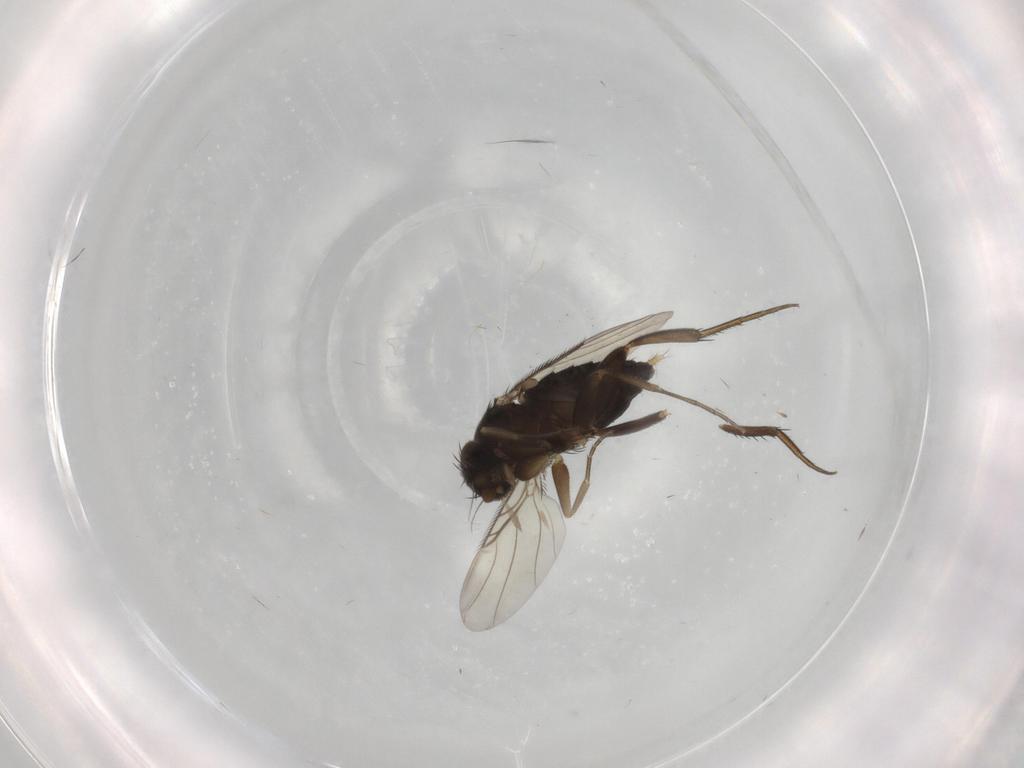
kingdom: Animalia
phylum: Arthropoda
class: Insecta
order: Diptera
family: Phoridae
